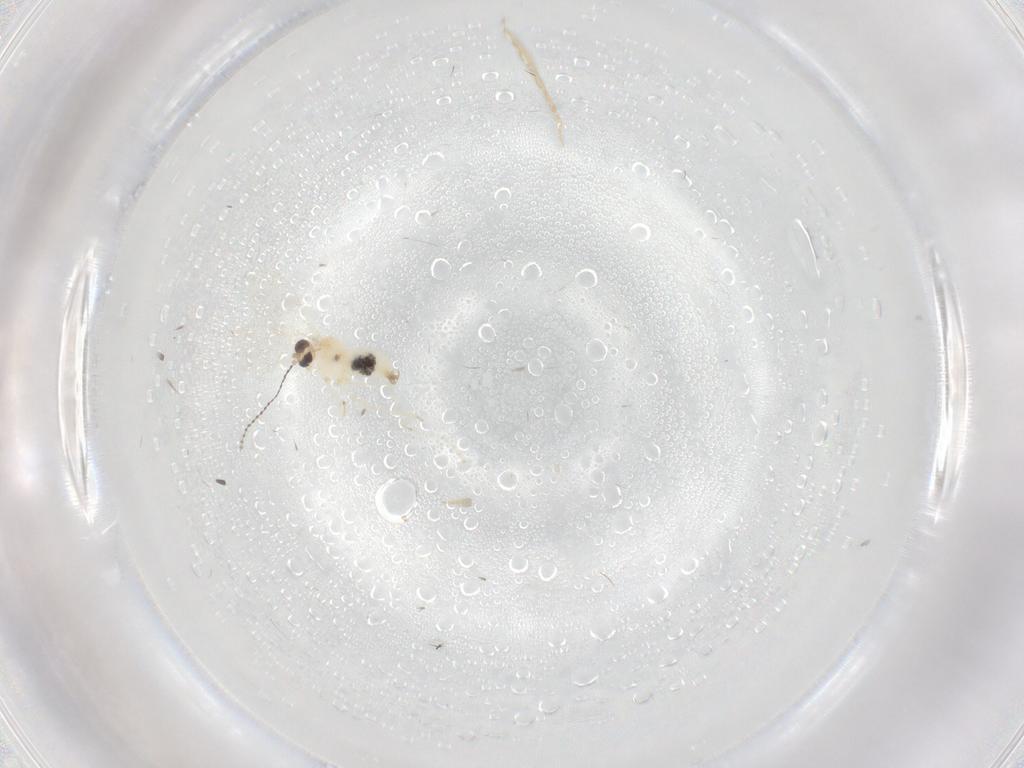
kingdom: Animalia
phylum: Arthropoda
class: Insecta
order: Diptera
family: Cecidomyiidae
